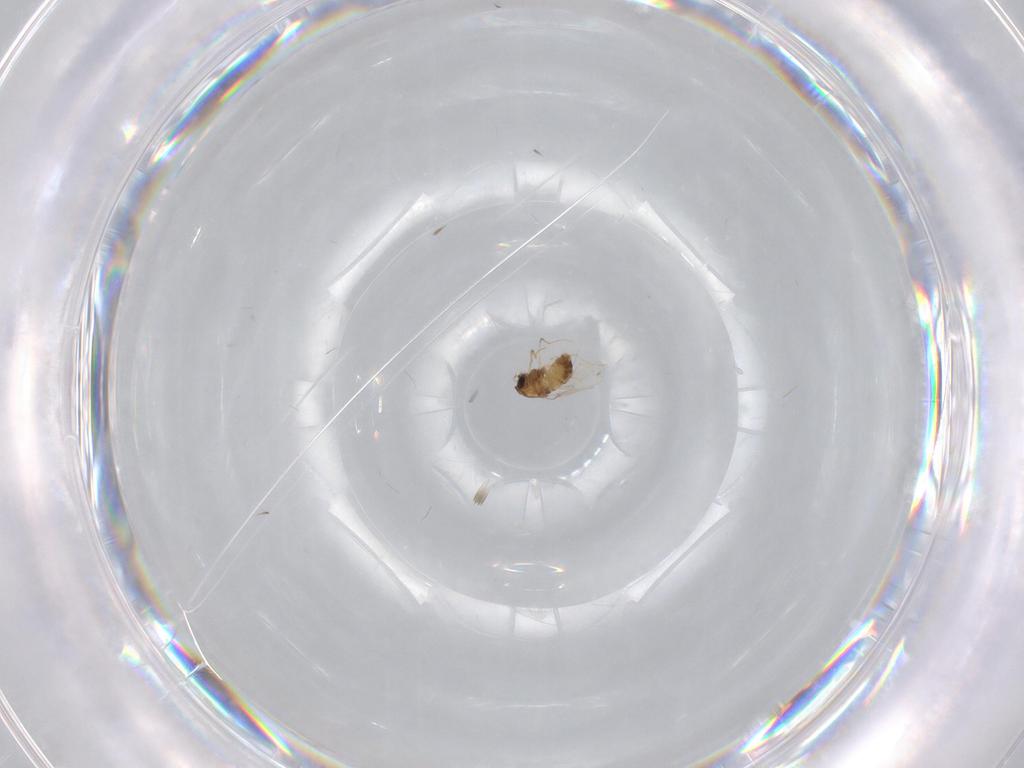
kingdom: Animalia
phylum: Arthropoda
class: Insecta
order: Diptera
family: Chironomidae
